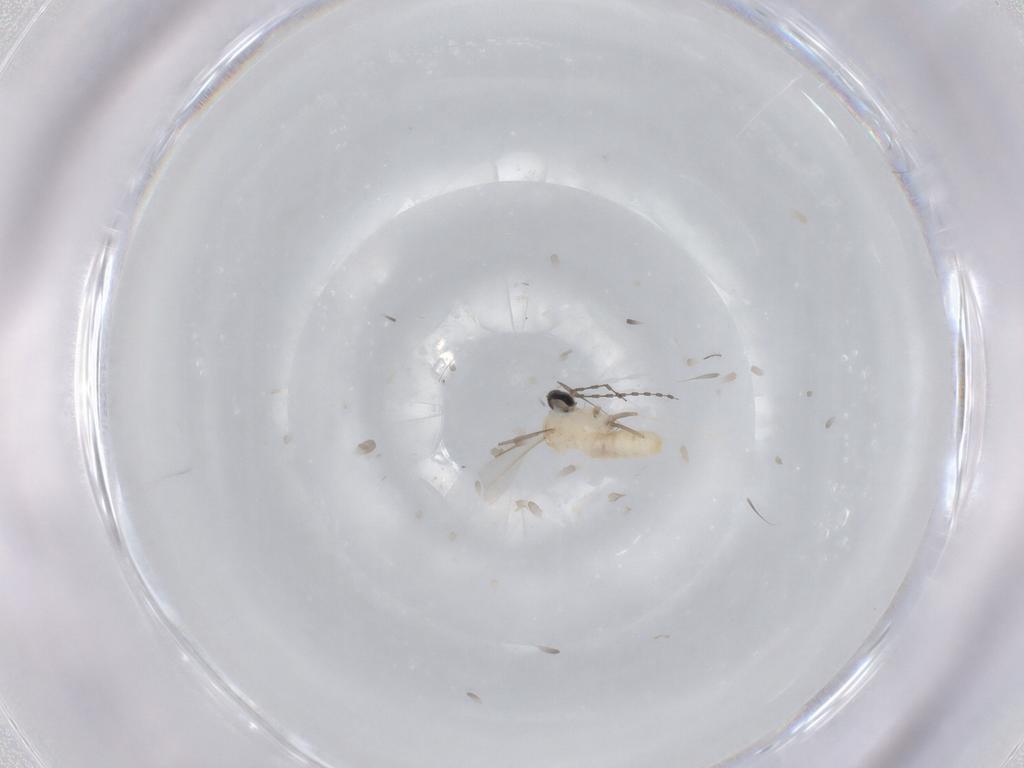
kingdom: Animalia
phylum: Arthropoda
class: Insecta
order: Diptera
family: Cecidomyiidae
